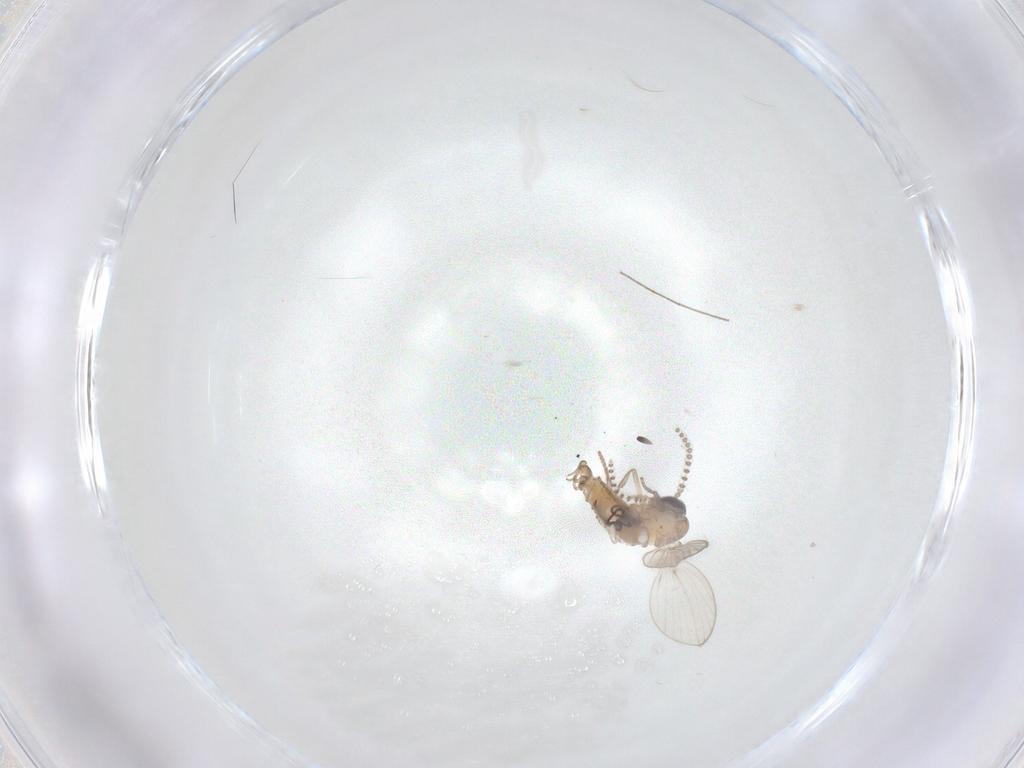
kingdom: Animalia
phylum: Arthropoda
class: Insecta
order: Diptera
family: Psychodidae
